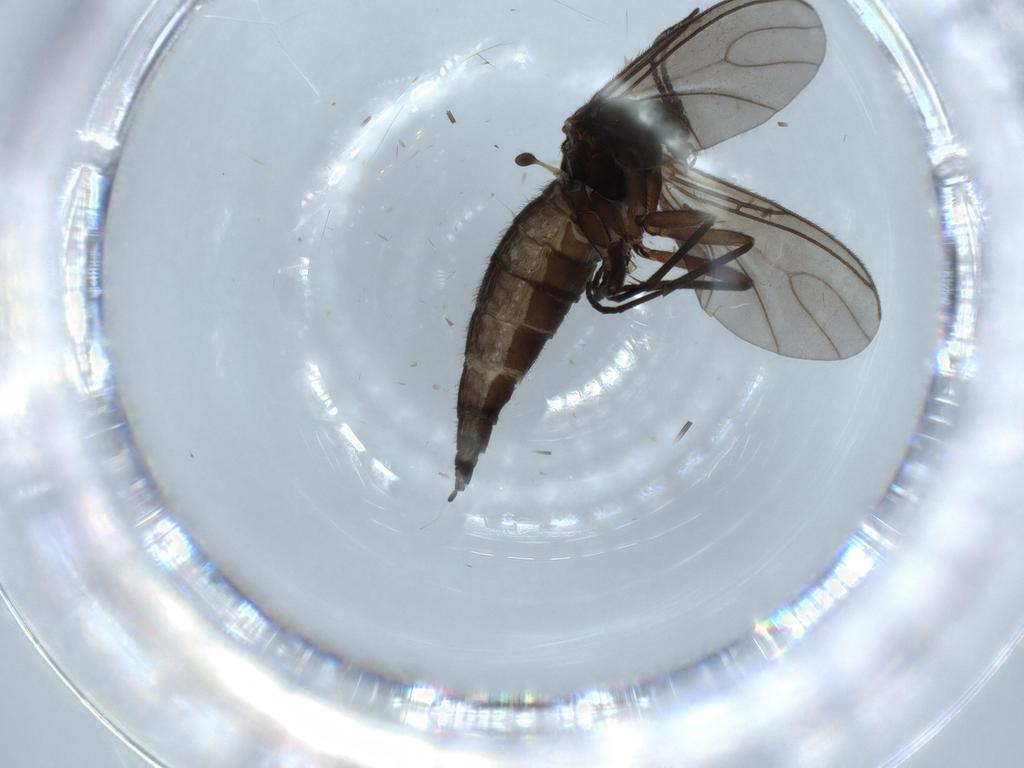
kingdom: Animalia
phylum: Arthropoda
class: Insecta
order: Diptera
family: Sciaridae
